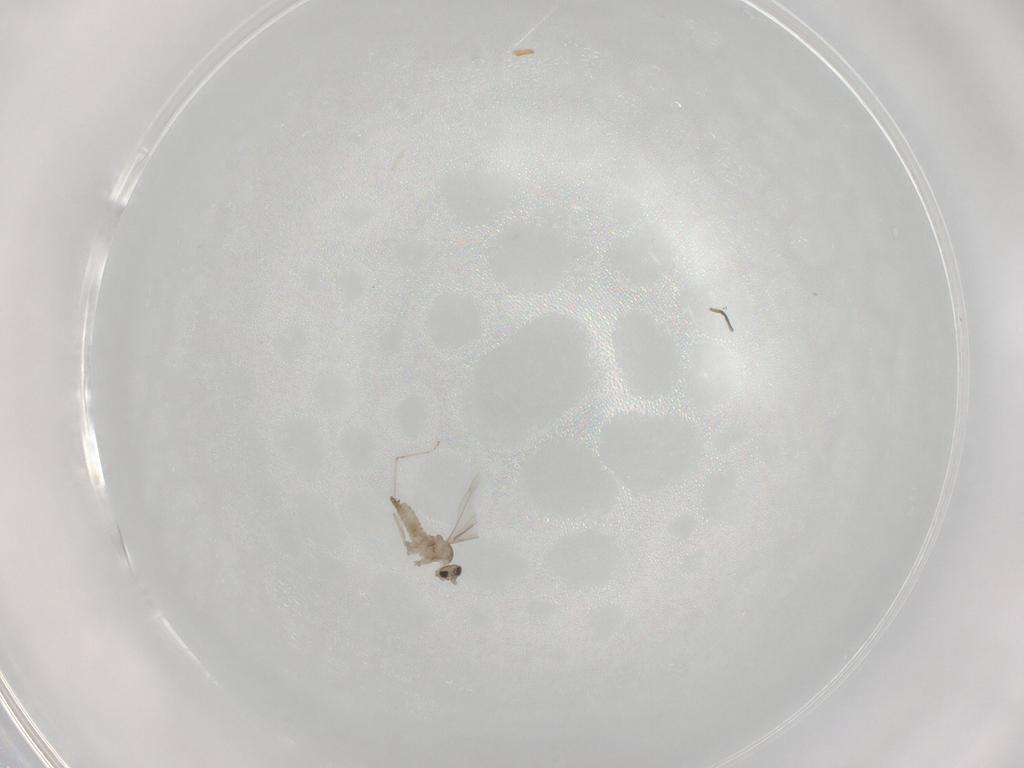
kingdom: Animalia
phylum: Arthropoda
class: Insecta
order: Diptera
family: Cecidomyiidae
